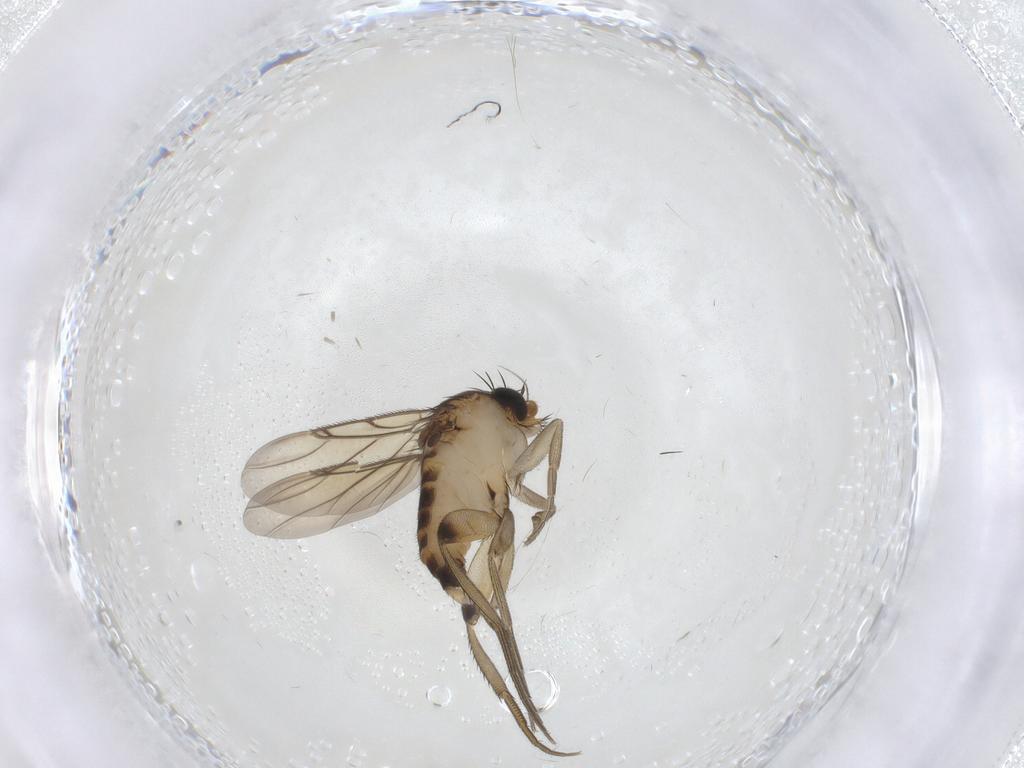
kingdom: Animalia
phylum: Arthropoda
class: Insecta
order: Diptera
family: Phoridae
